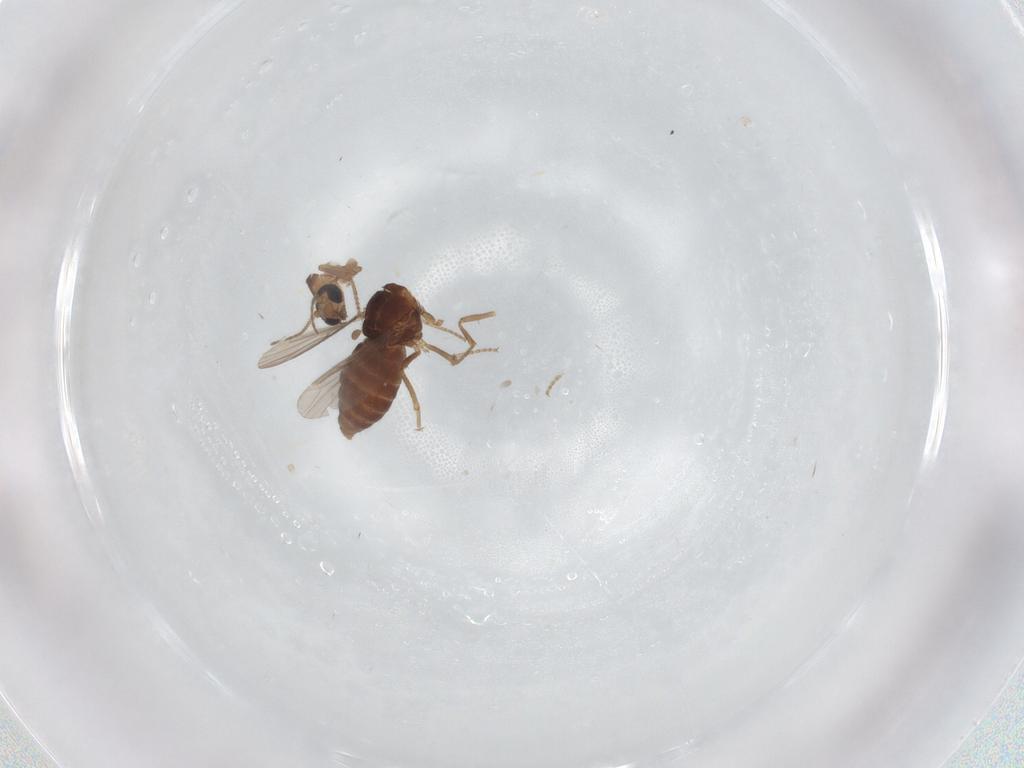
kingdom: Animalia
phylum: Arthropoda
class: Insecta
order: Diptera
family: Ceratopogonidae
